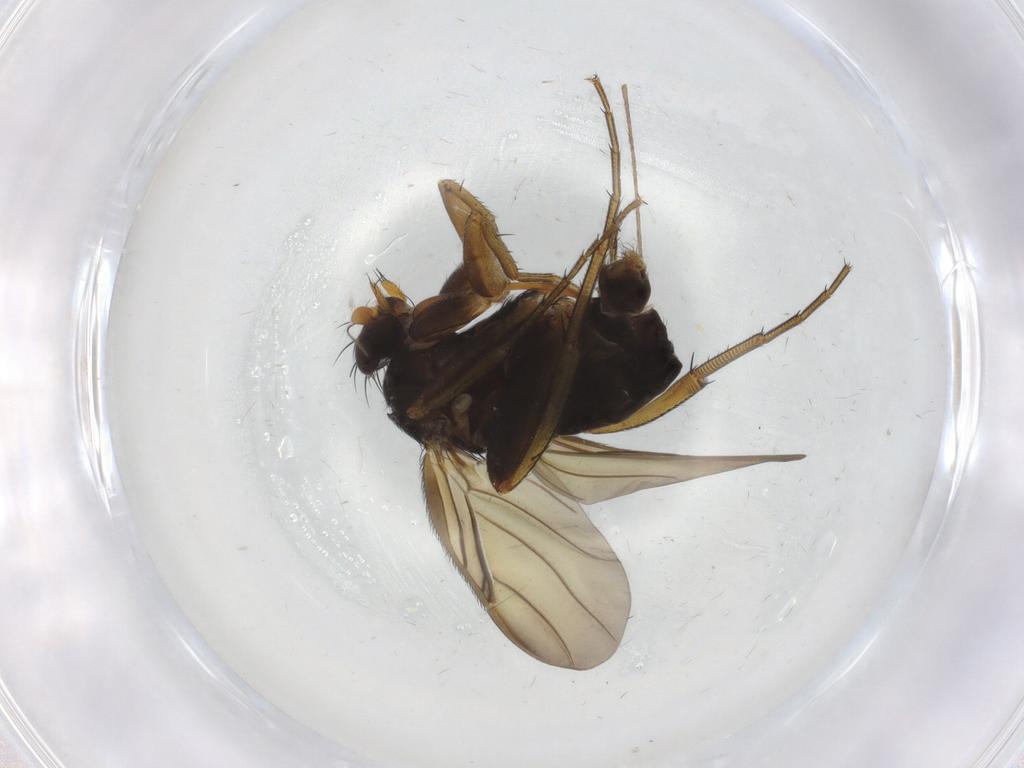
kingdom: Animalia
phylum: Arthropoda
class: Insecta
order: Diptera
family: Phoridae
